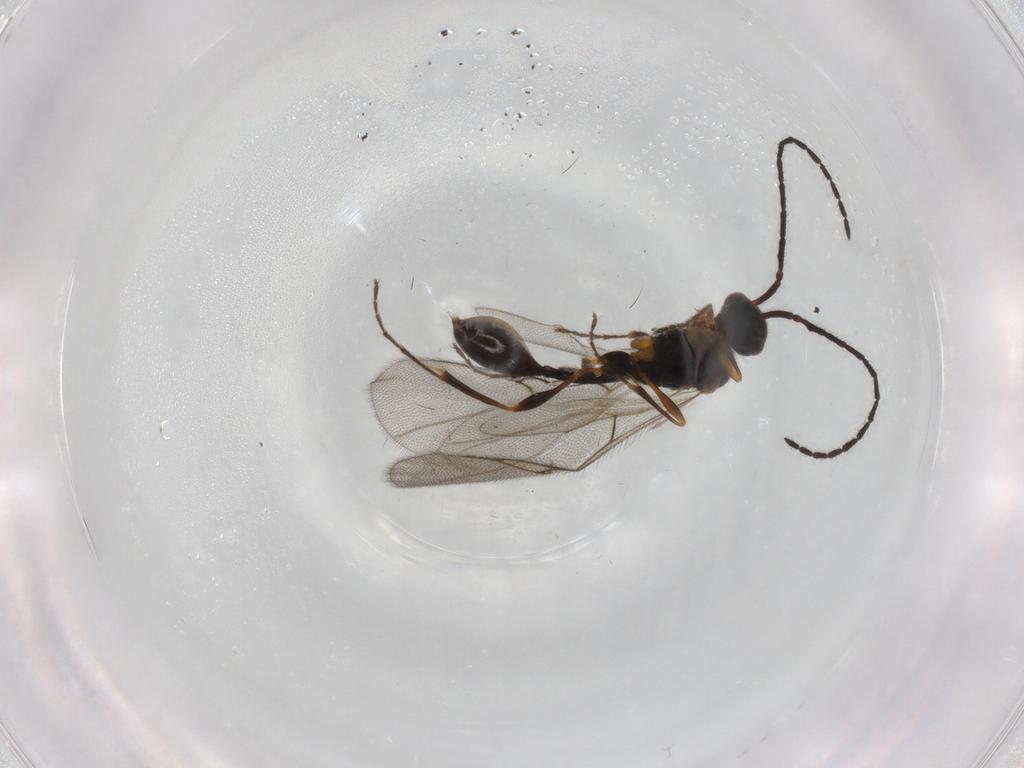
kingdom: Animalia
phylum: Arthropoda
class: Insecta
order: Hymenoptera
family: Diapriidae
